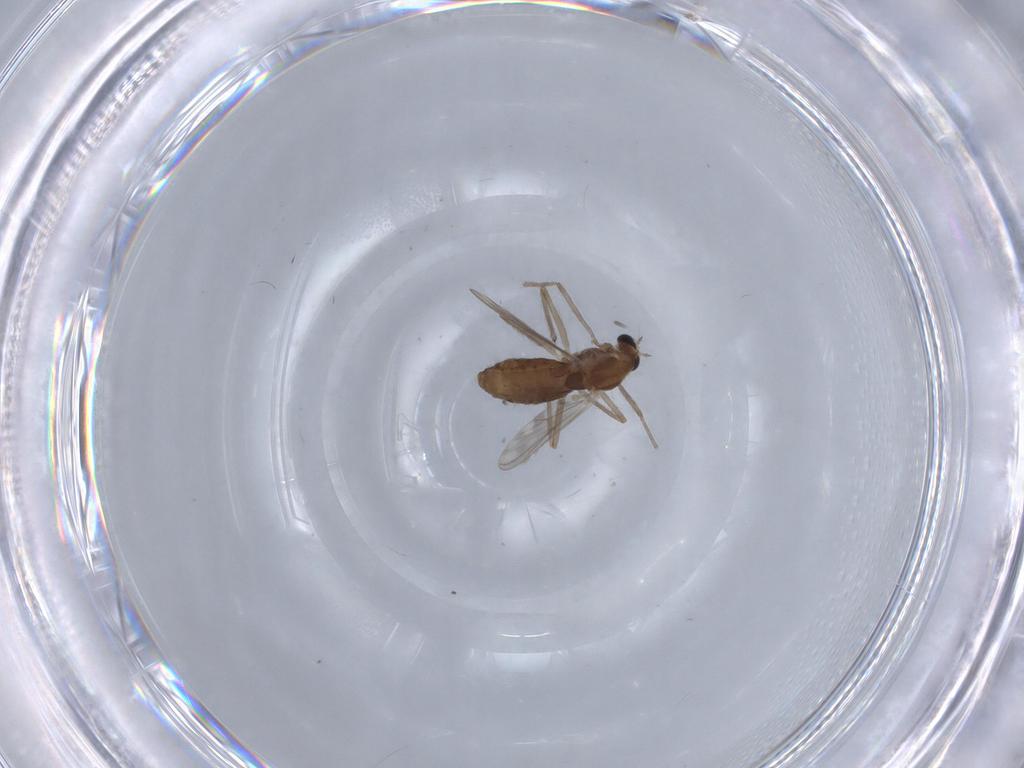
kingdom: Animalia
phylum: Arthropoda
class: Insecta
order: Diptera
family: Chironomidae
